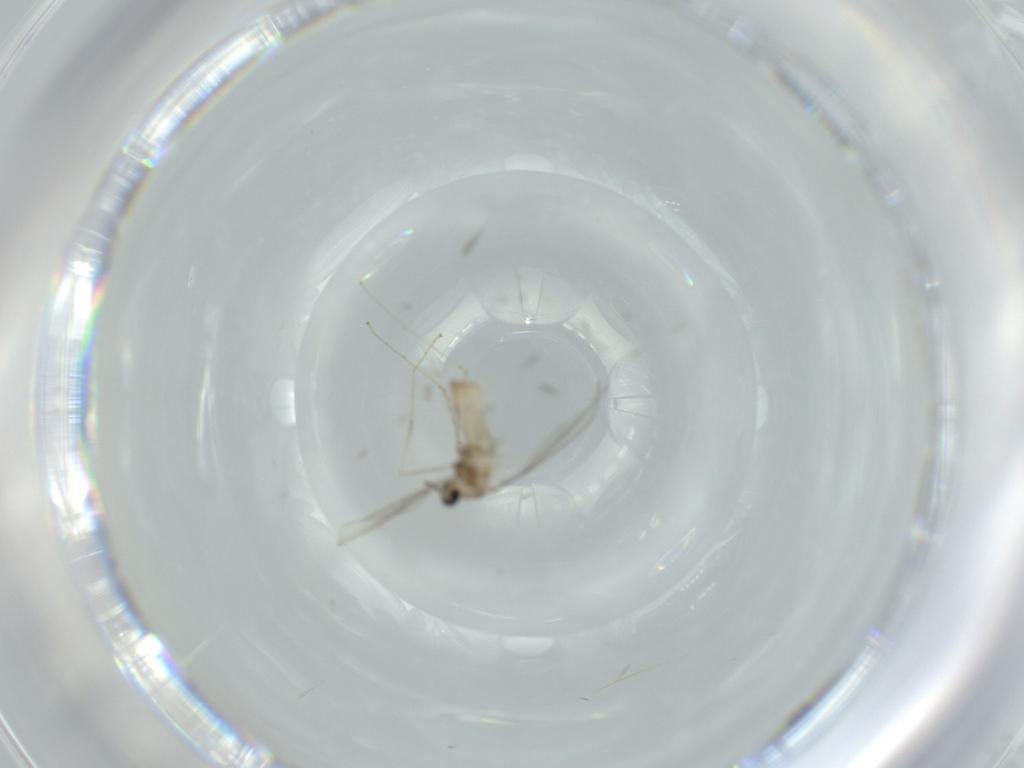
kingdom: Animalia
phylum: Arthropoda
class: Insecta
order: Diptera
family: Cecidomyiidae
